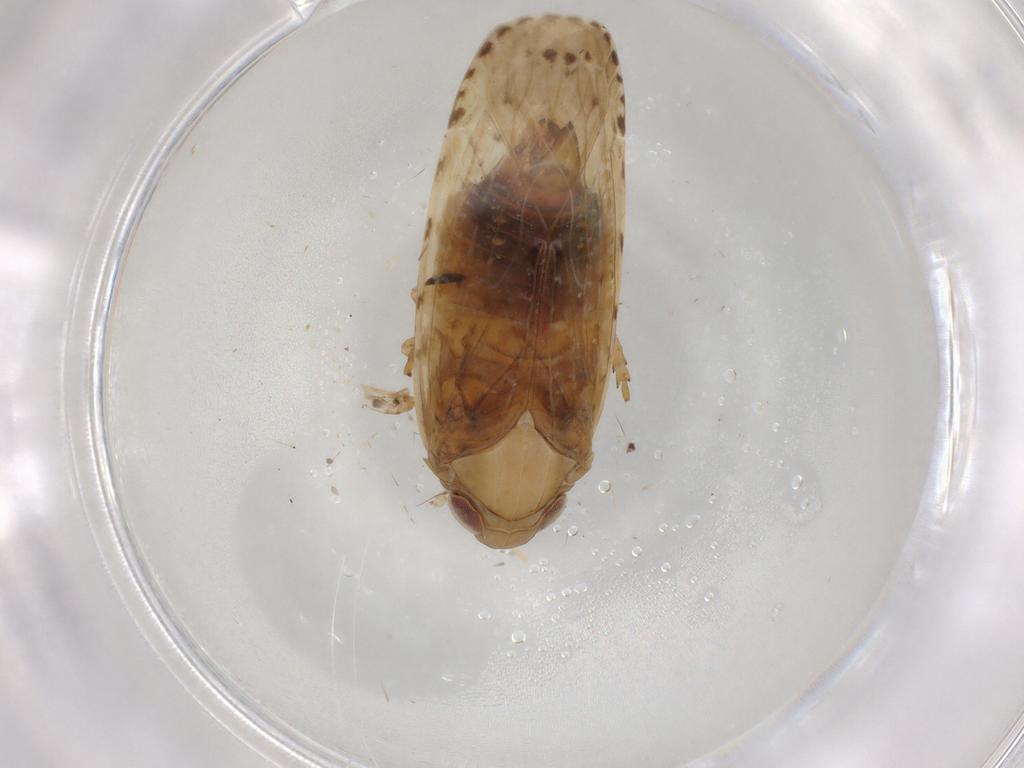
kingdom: Animalia
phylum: Arthropoda
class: Insecta
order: Hemiptera
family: Cicadellidae
